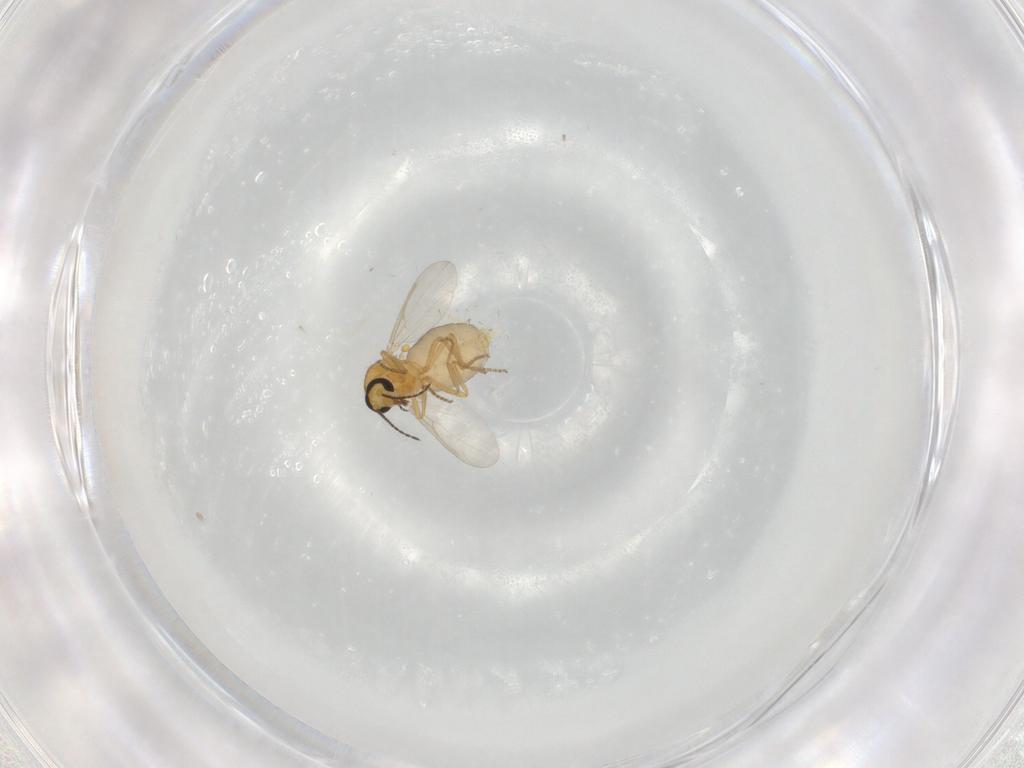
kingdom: Animalia
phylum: Arthropoda
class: Insecta
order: Diptera
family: Ceratopogonidae
